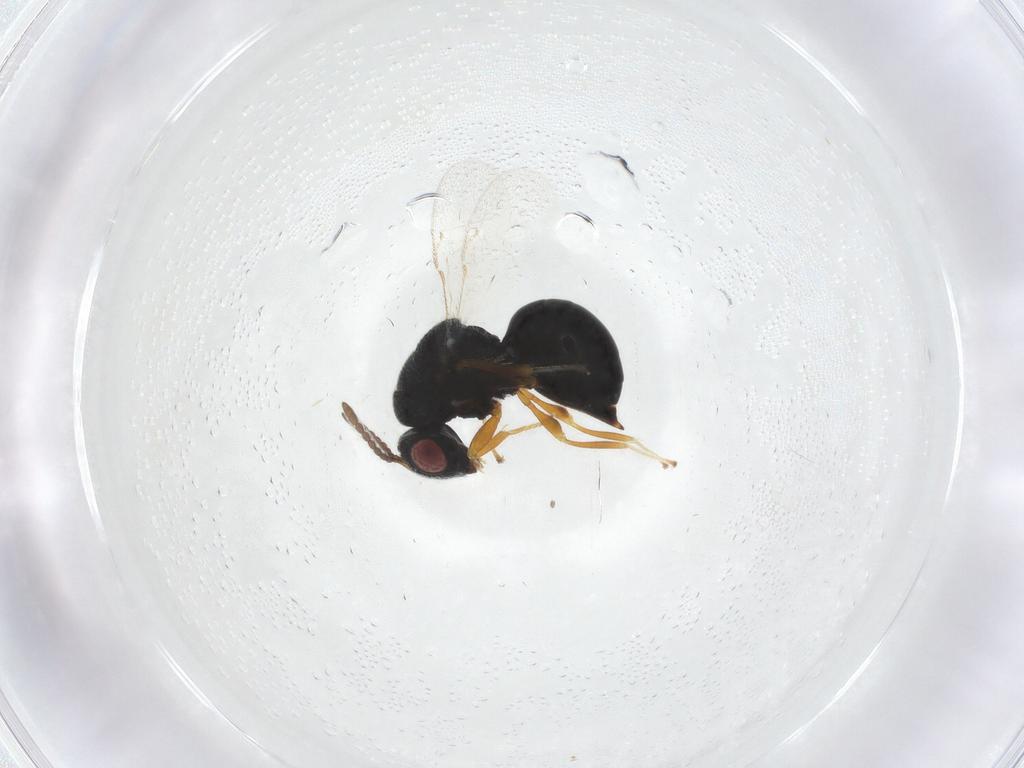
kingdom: Animalia
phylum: Arthropoda
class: Insecta
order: Hymenoptera
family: Eurytomidae
